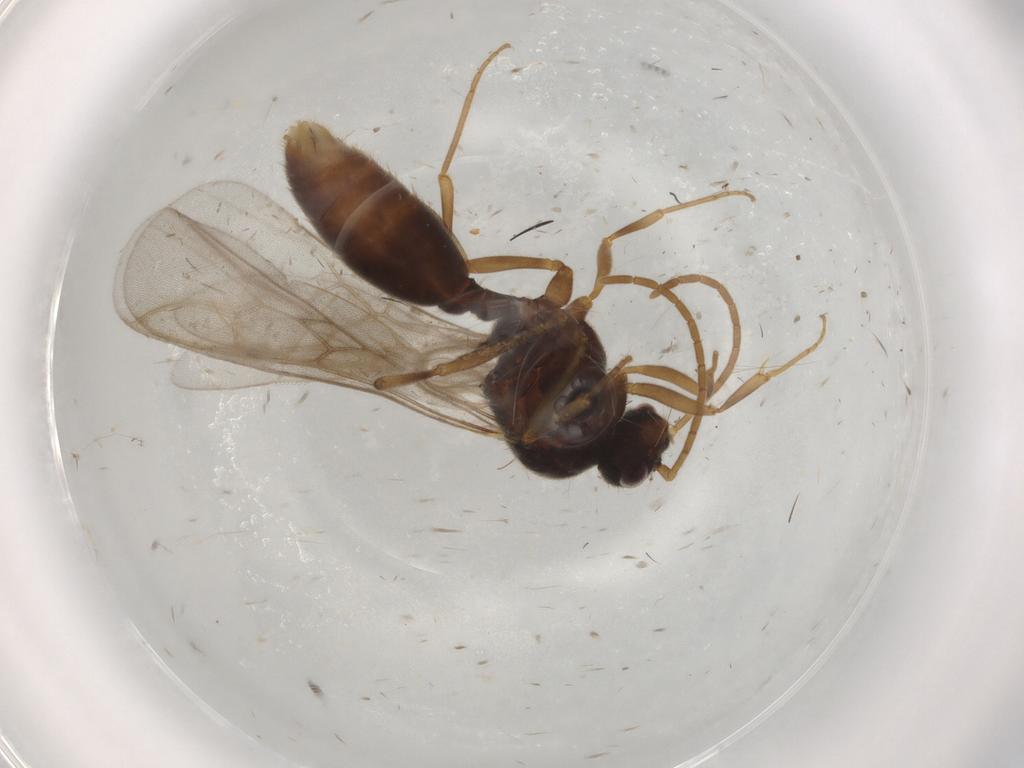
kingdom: Animalia
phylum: Arthropoda
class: Insecta
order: Hymenoptera
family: Formicidae
